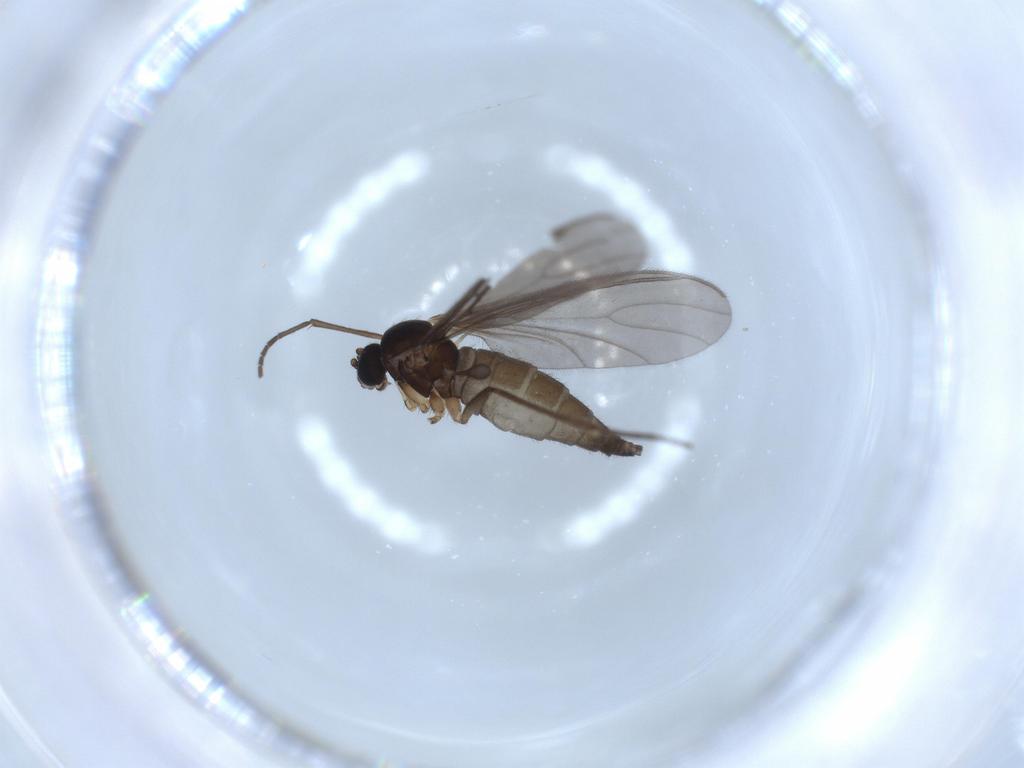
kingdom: Animalia
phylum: Arthropoda
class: Insecta
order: Diptera
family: Sciaridae
